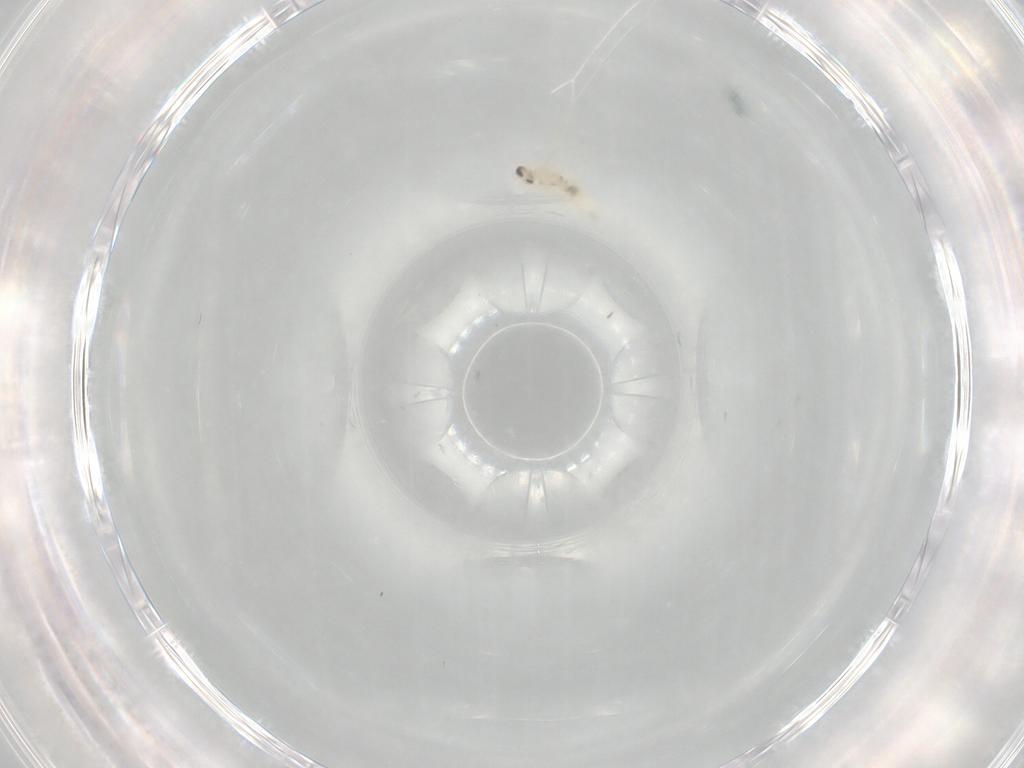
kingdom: Animalia
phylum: Arthropoda
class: Insecta
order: Diptera
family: Cecidomyiidae
